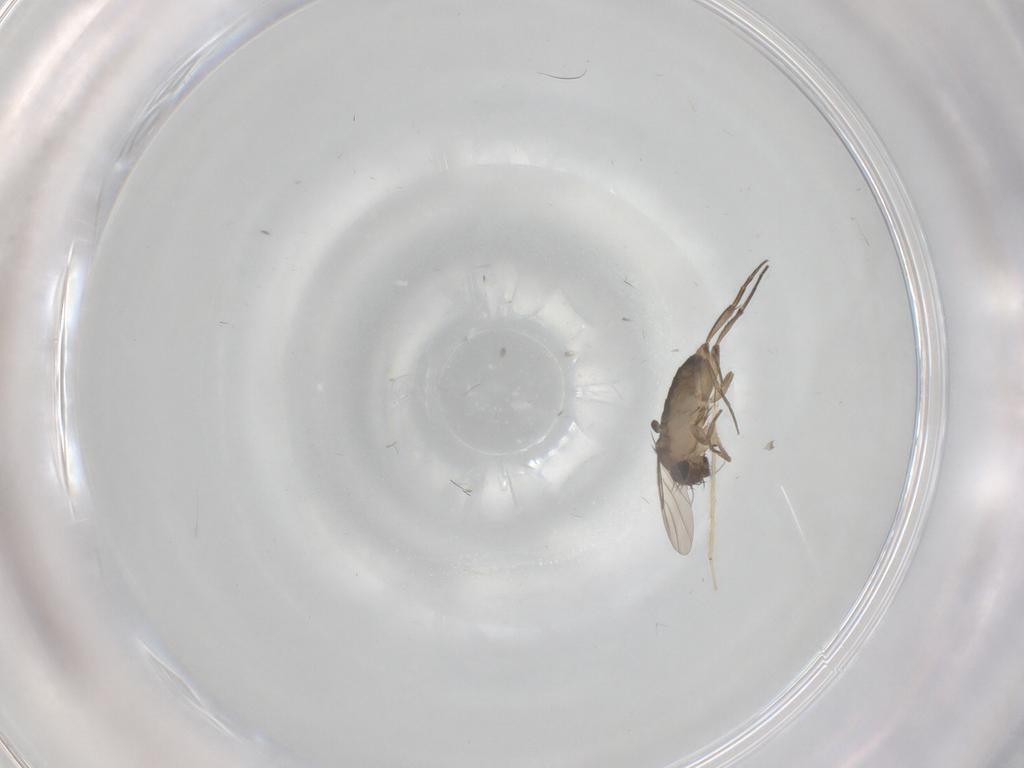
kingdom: Animalia
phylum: Arthropoda
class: Insecta
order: Diptera
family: Phoridae
